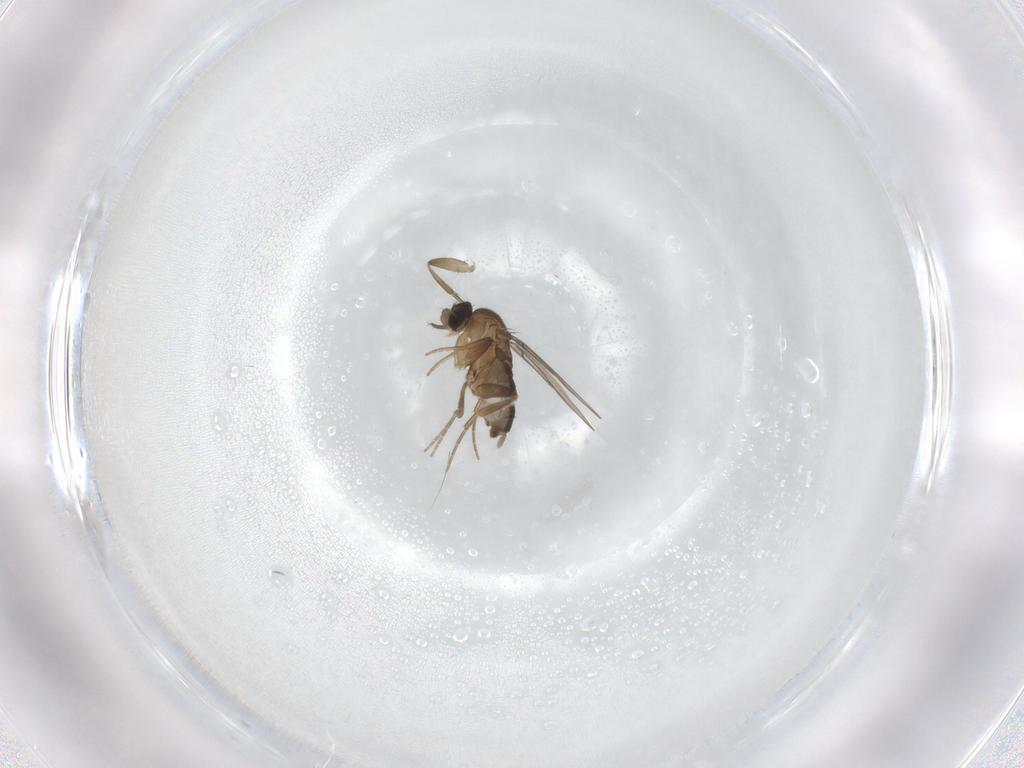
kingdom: Animalia
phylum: Arthropoda
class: Insecta
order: Diptera
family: Phoridae
